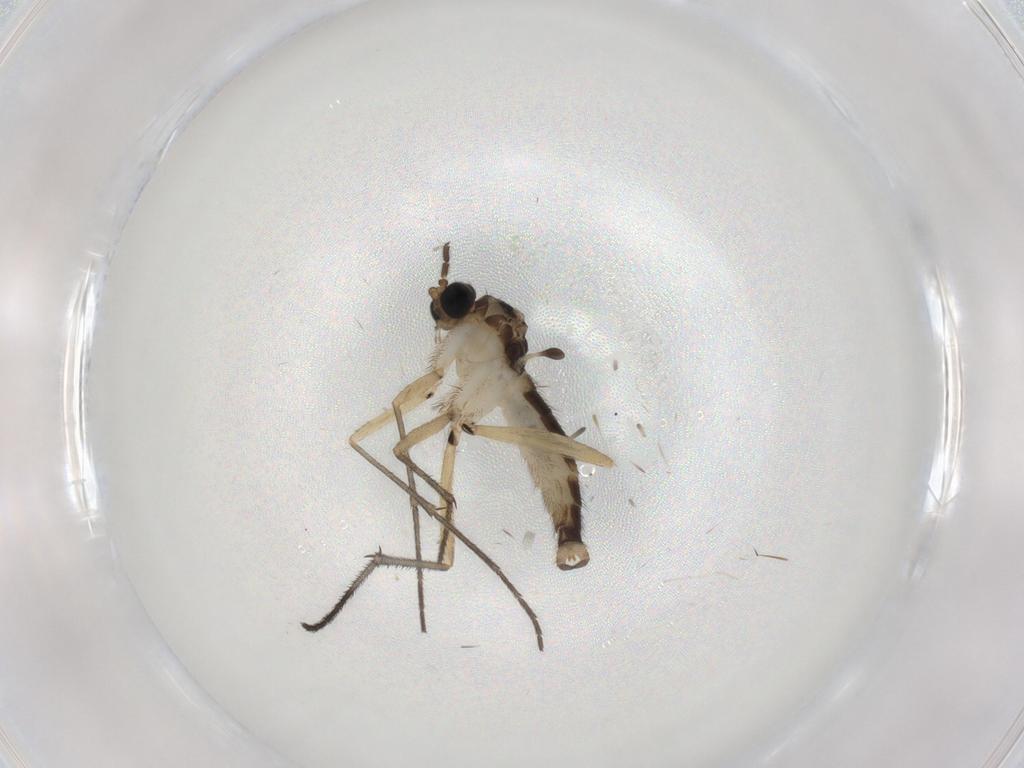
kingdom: Animalia
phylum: Arthropoda
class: Insecta
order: Diptera
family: Sciaridae
